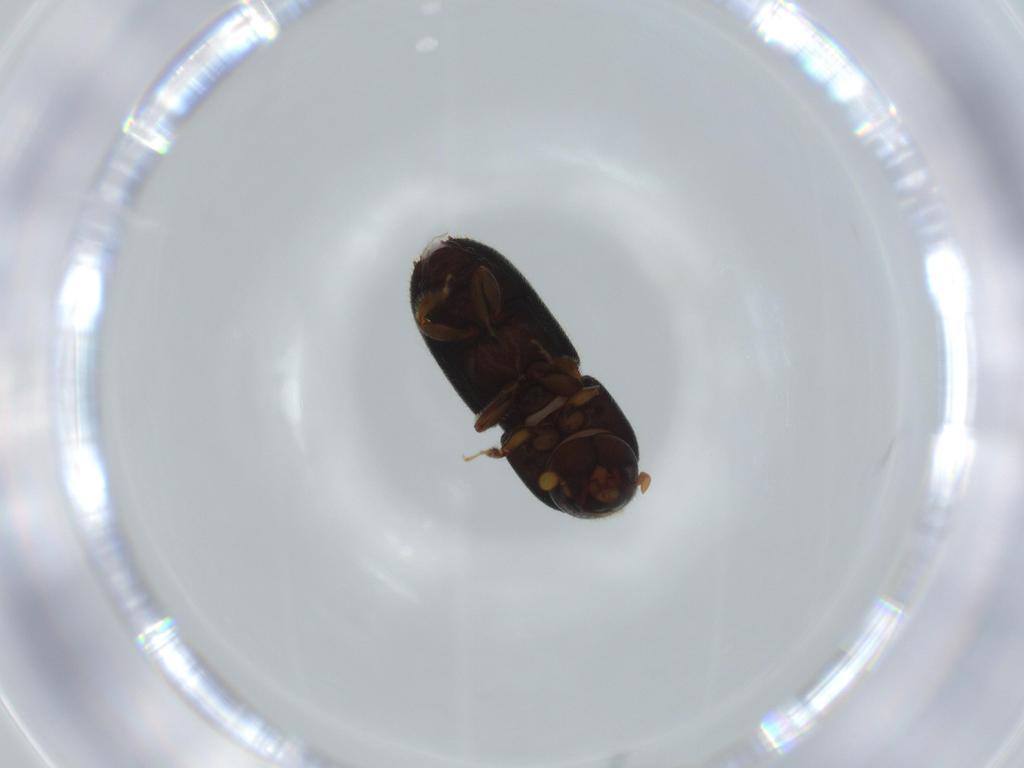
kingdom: Animalia
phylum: Arthropoda
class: Insecta
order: Coleoptera
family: Curculionidae
